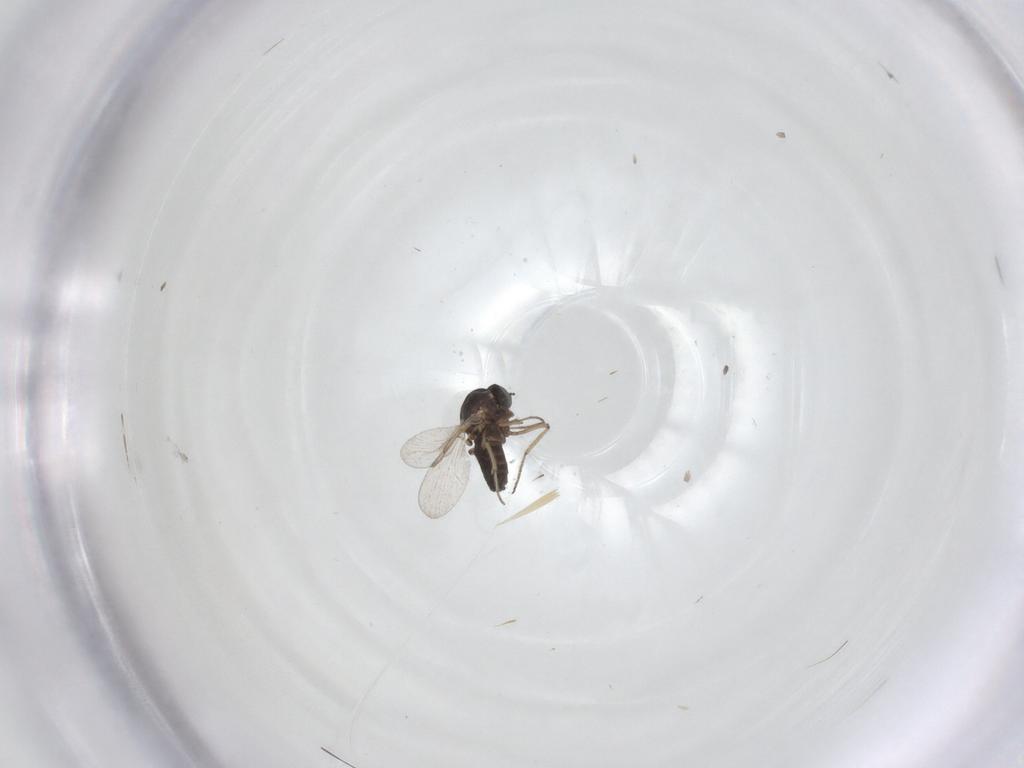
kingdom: Animalia
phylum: Arthropoda
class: Insecta
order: Diptera
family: Ceratopogonidae
